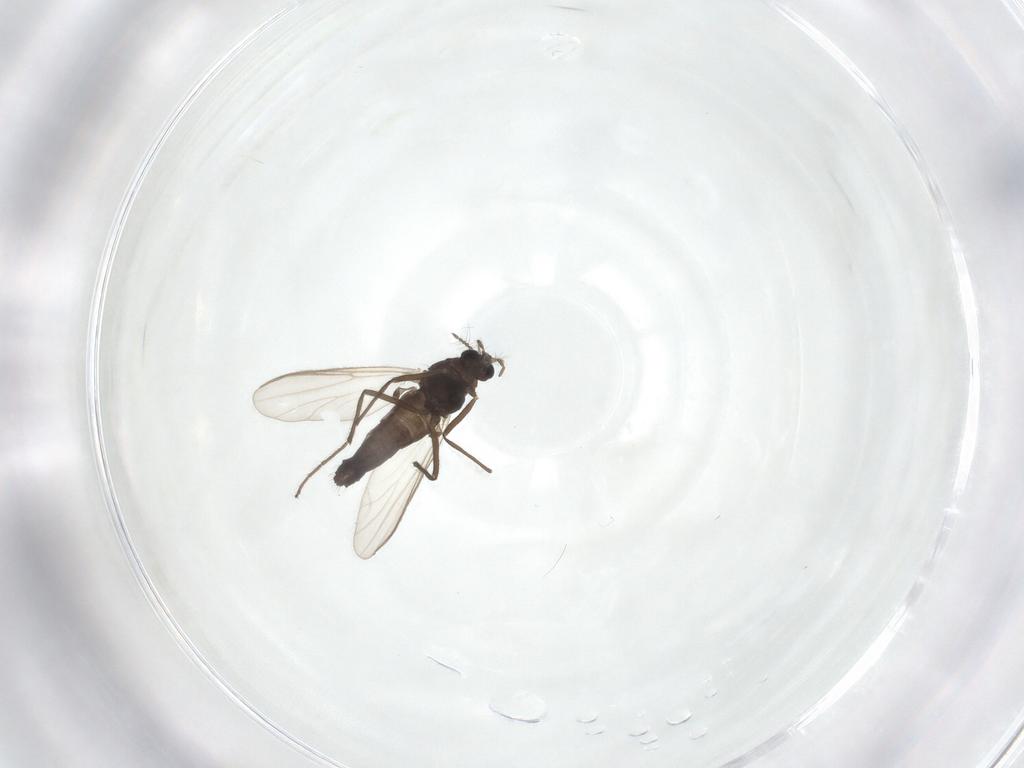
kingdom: Animalia
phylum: Arthropoda
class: Insecta
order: Diptera
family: Chironomidae
